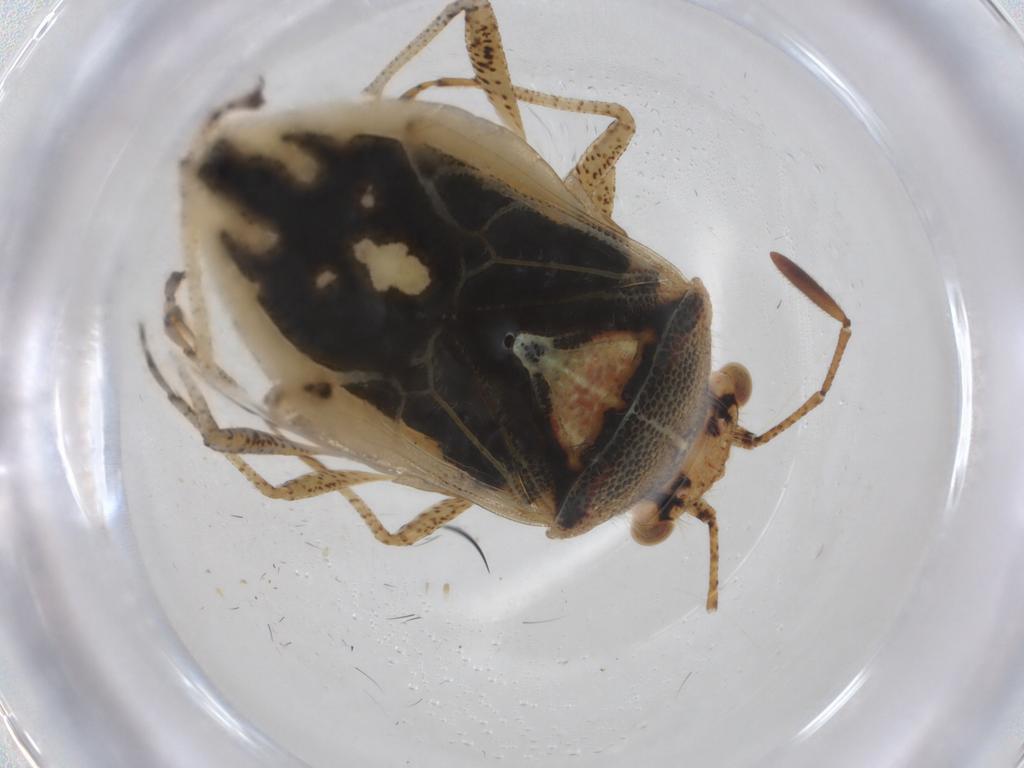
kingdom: Animalia
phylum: Arthropoda
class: Insecta
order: Hemiptera
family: Rhopalidae
